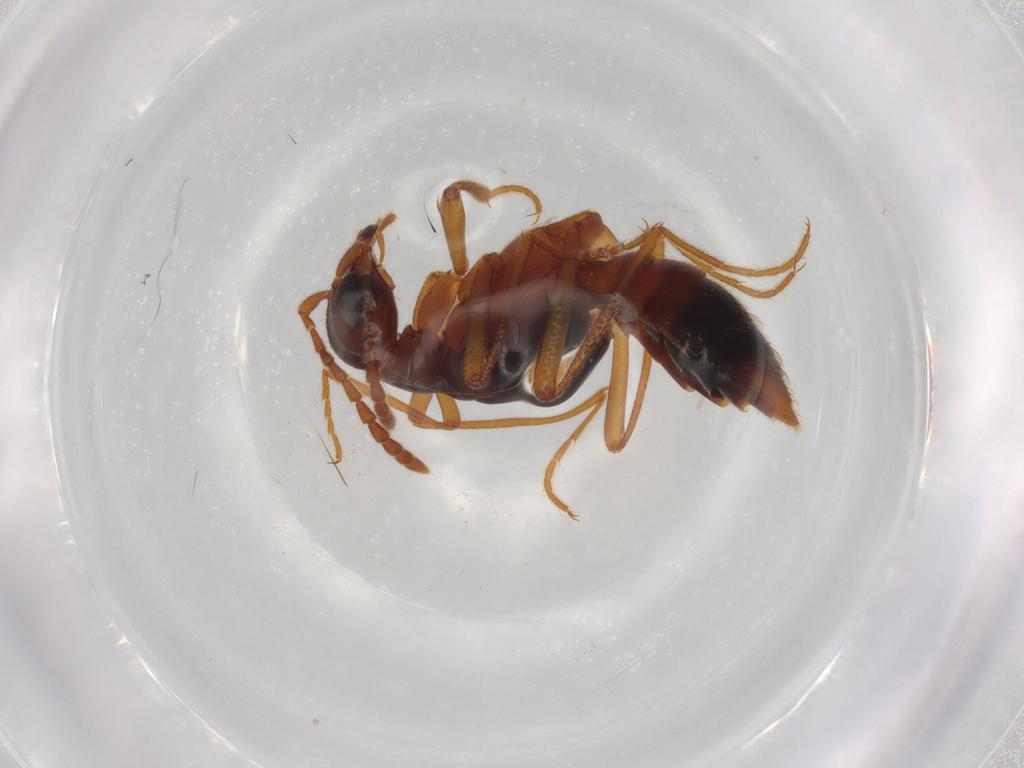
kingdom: Animalia
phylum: Arthropoda
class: Insecta
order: Coleoptera
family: Staphylinidae
